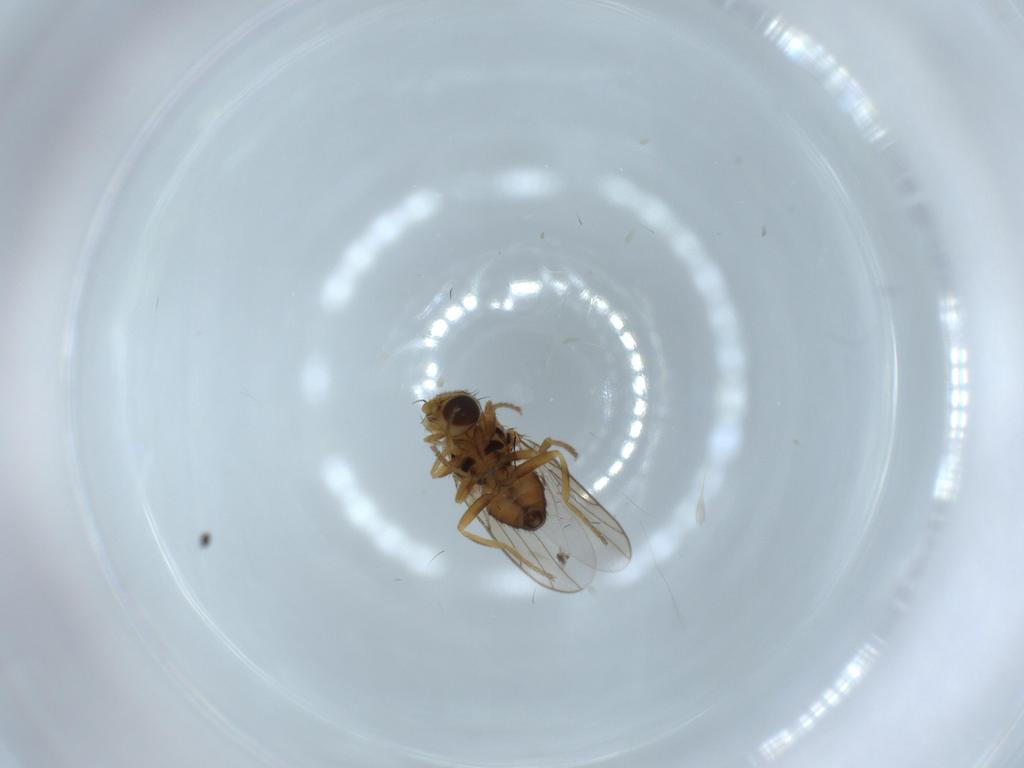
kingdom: Animalia
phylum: Arthropoda
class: Insecta
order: Diptera
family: Chloropidae
